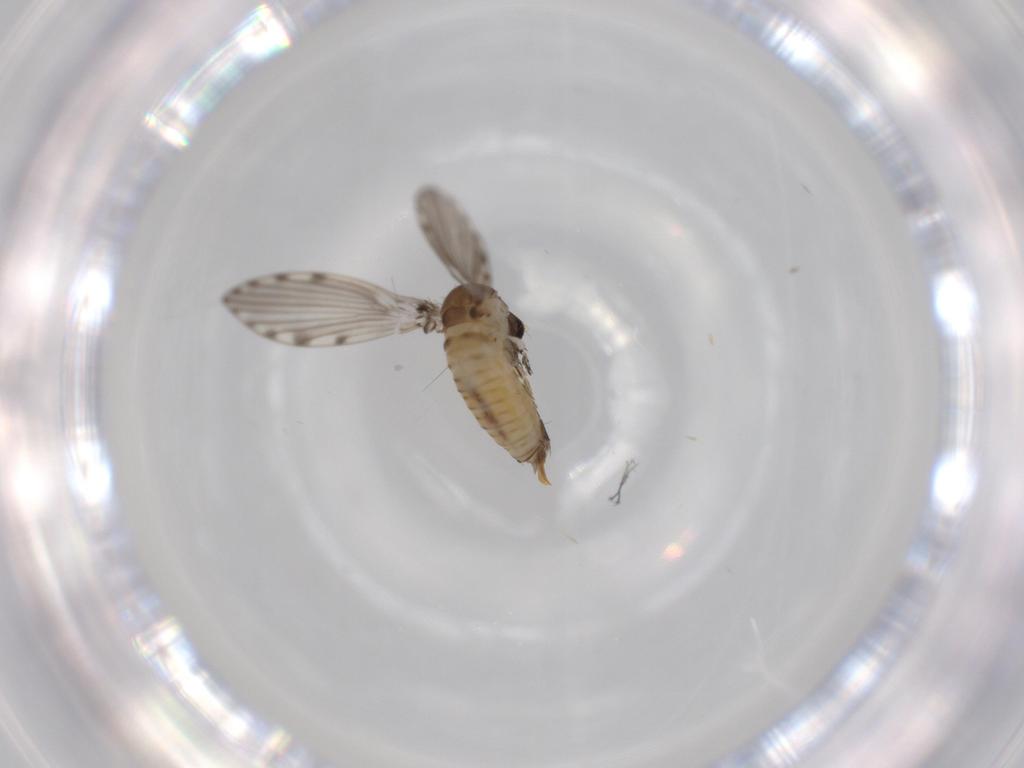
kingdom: Animalia
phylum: Arthropoda
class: Insecta
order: Diptera
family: Psychodidae
